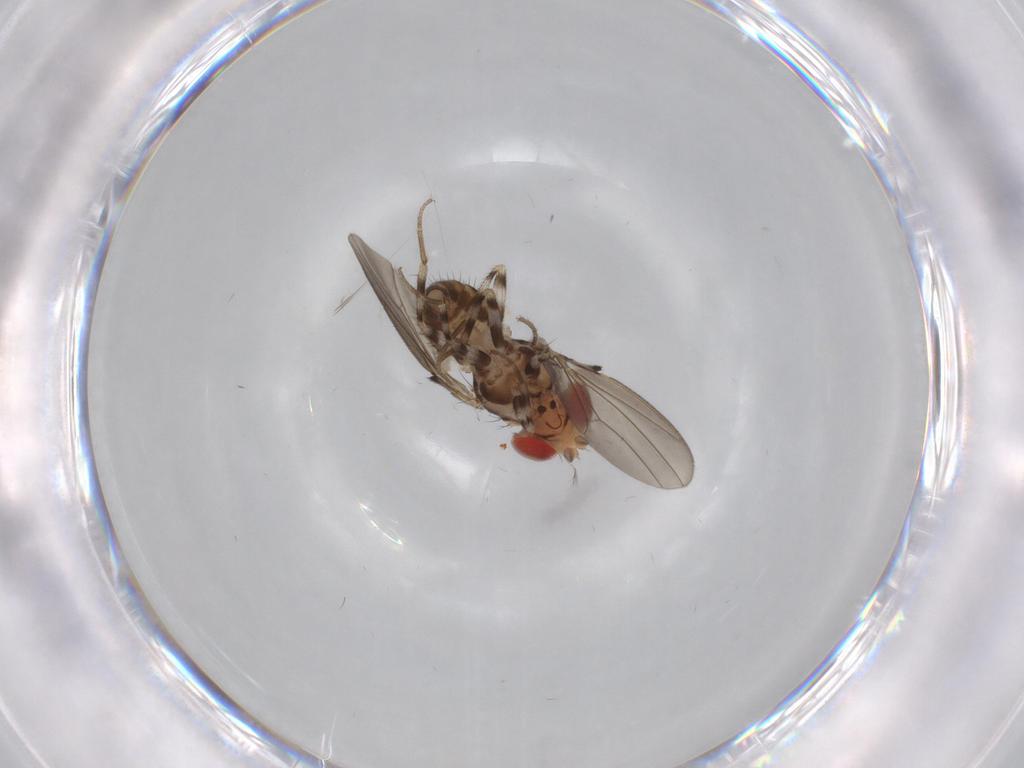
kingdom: Animalia
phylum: Arthropoda
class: Insecta
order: Diptera
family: Drosophilidae
